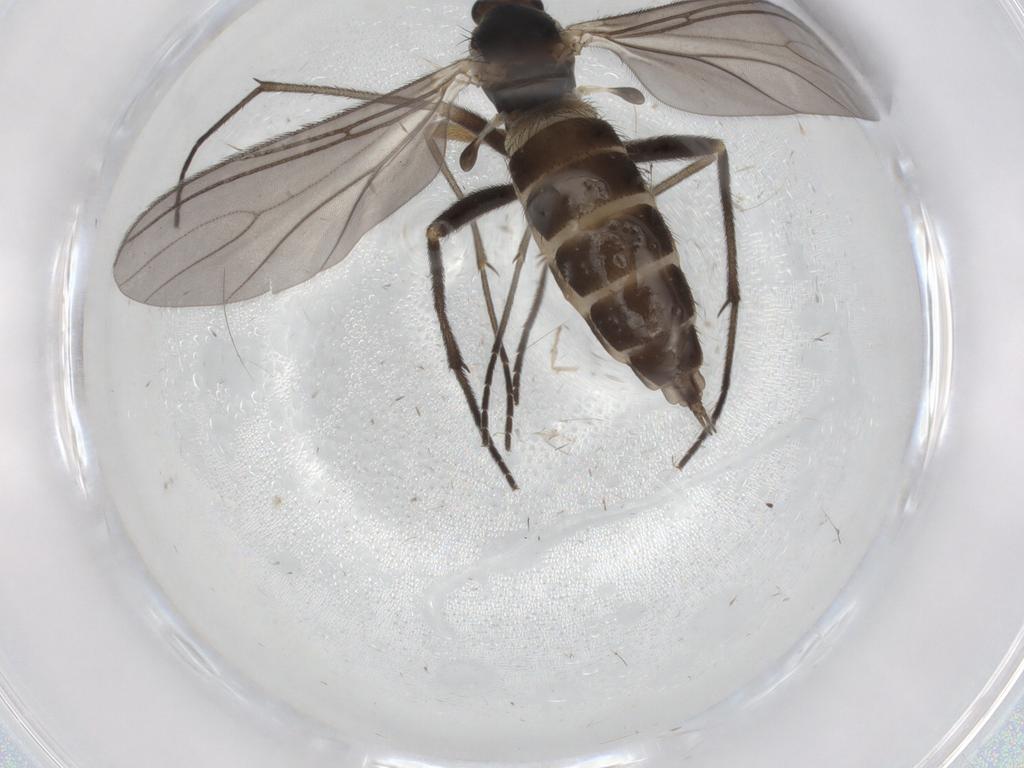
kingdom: Animalia
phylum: Arthropoda
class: Insecta
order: Diptera
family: Sciaridae
